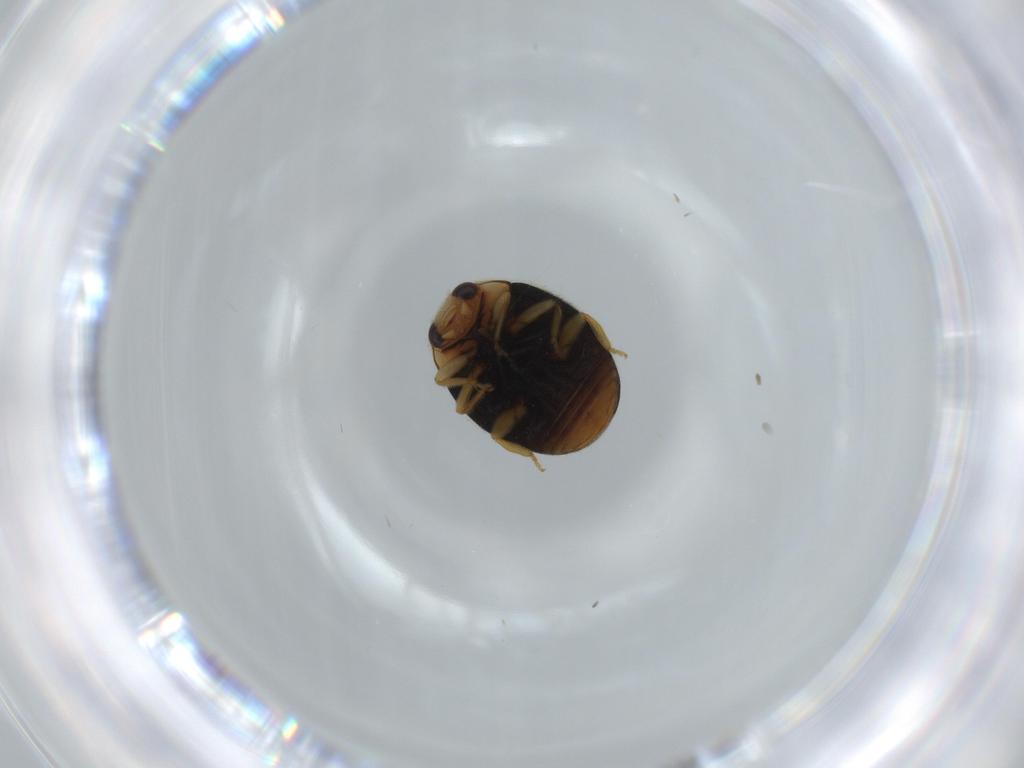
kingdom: Animalia
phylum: Arthropoda
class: Insecta
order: Coleoptera
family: Coccinellidae
